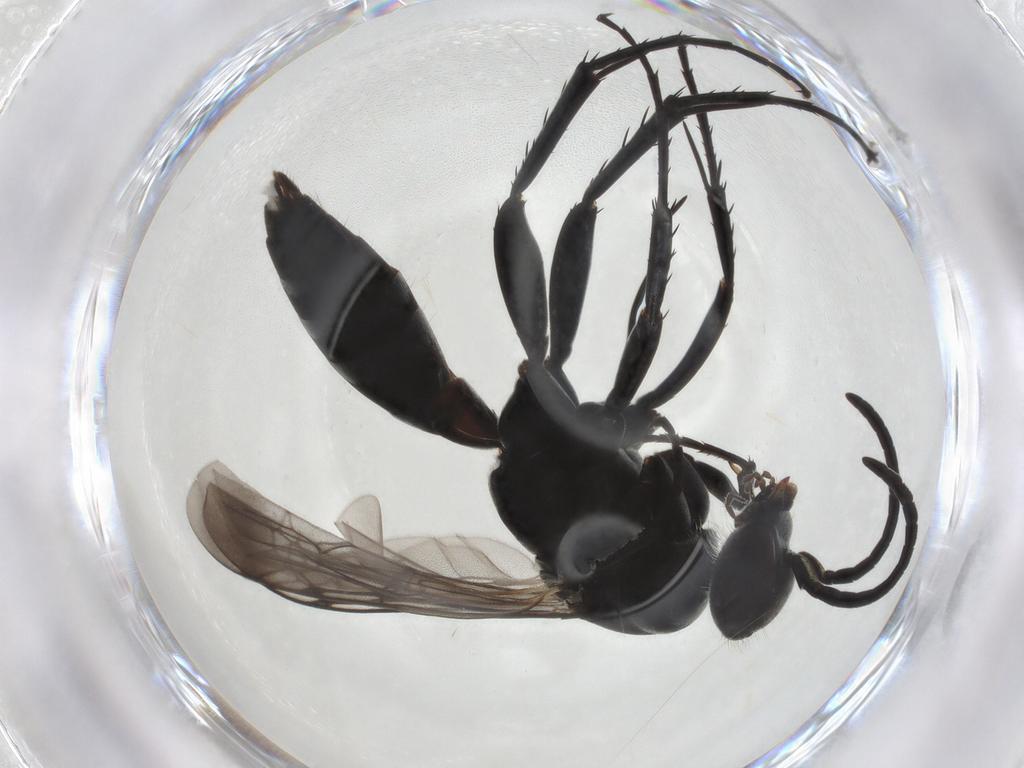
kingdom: Animalia
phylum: Arthropoda
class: Insecta
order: Hymenoptera
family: Pompilidae
